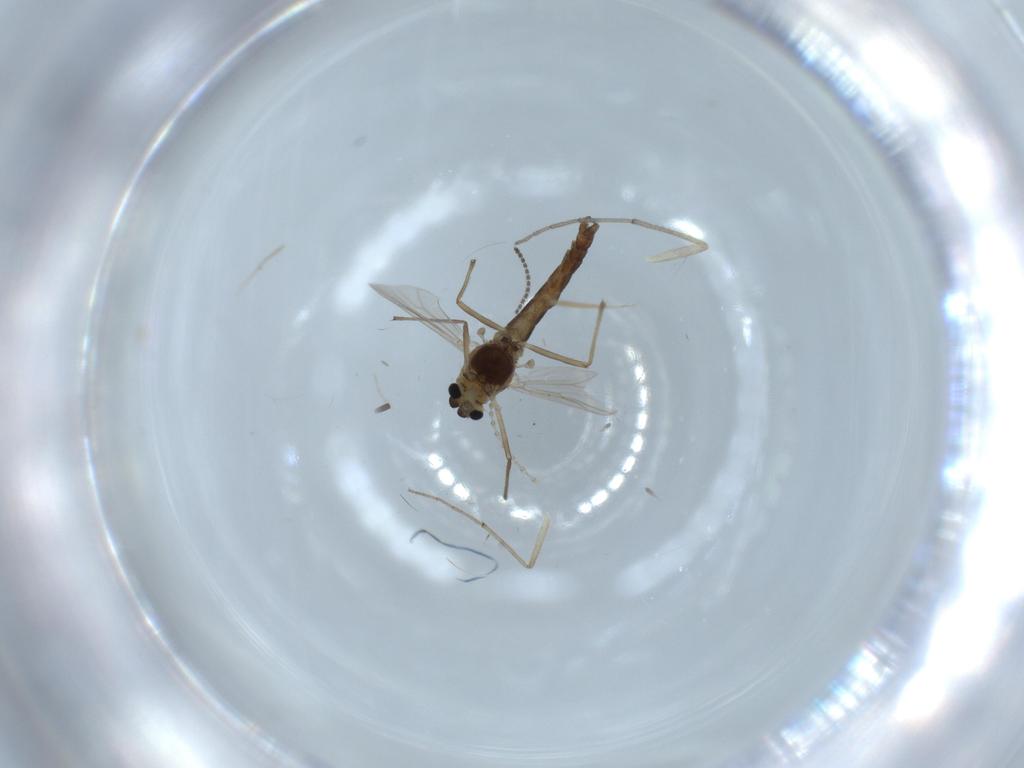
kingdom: Animalia
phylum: Arthropoda
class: Insecta
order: Diptera
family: Chironomidae
